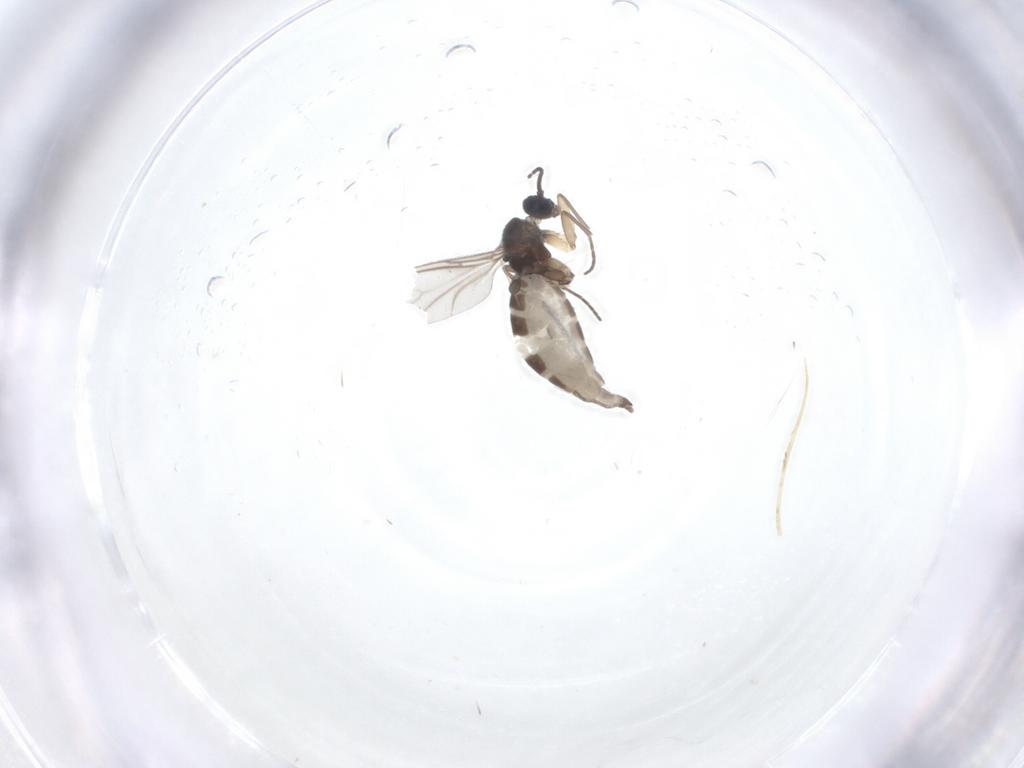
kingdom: Animalia
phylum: Arthropoda
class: Insecta
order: Diptera
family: Sciaridae
